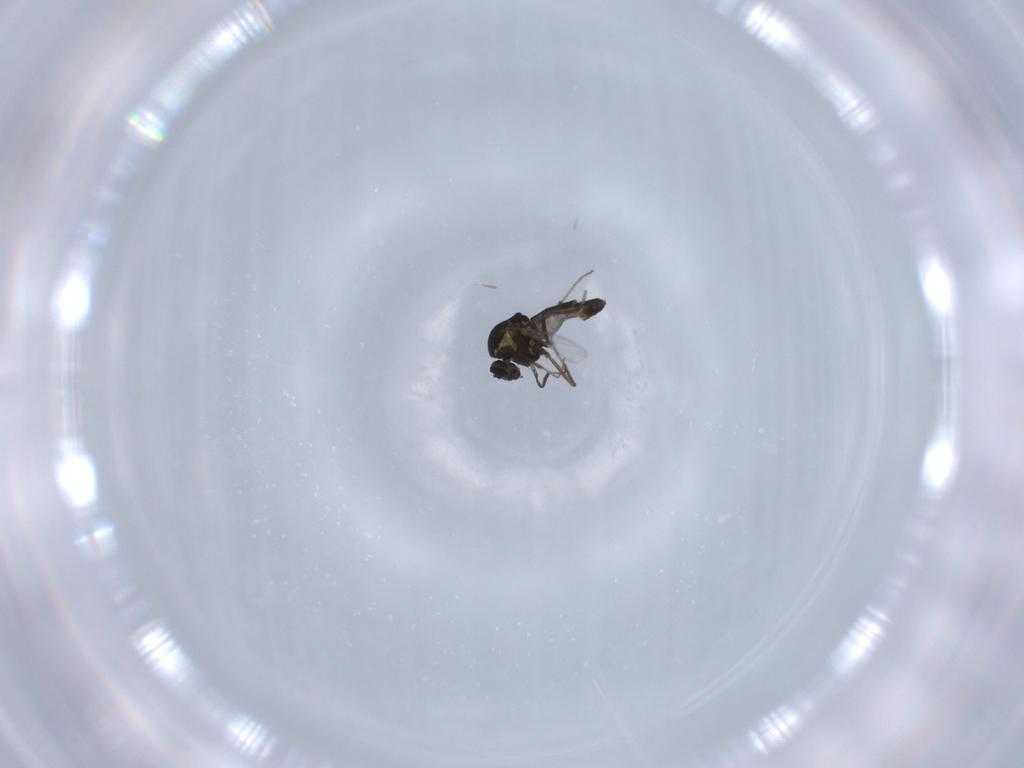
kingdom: Animalia
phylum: Arthropoda
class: Insecta
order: Diptera
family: Ceratopogonidae
